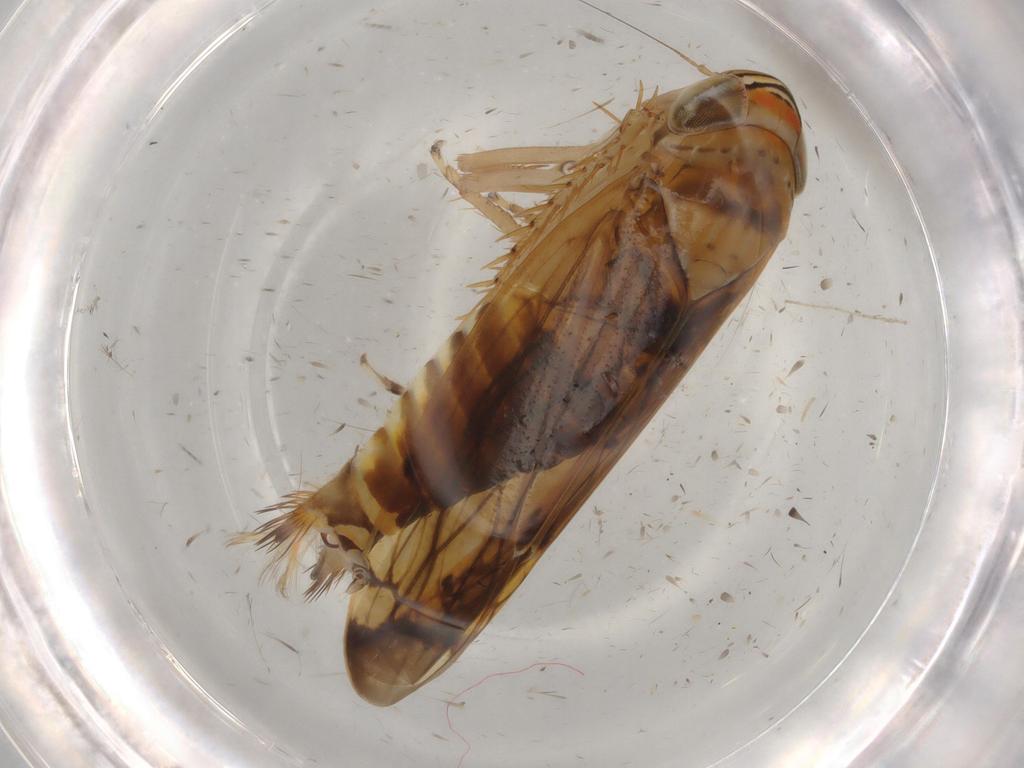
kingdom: Animalia
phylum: Arthropoda
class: Insecta
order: Hemiptera
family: Cicadellidae
